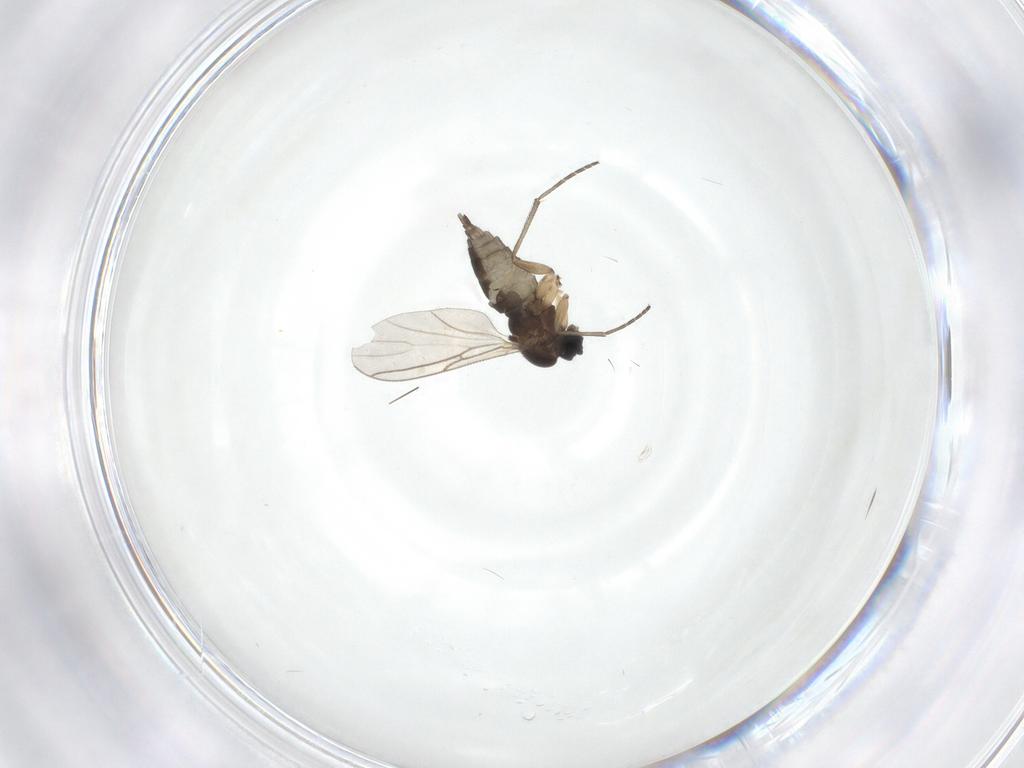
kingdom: Animalia
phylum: Arthropoda
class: Insecta
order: Diptera
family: Sciaridae
